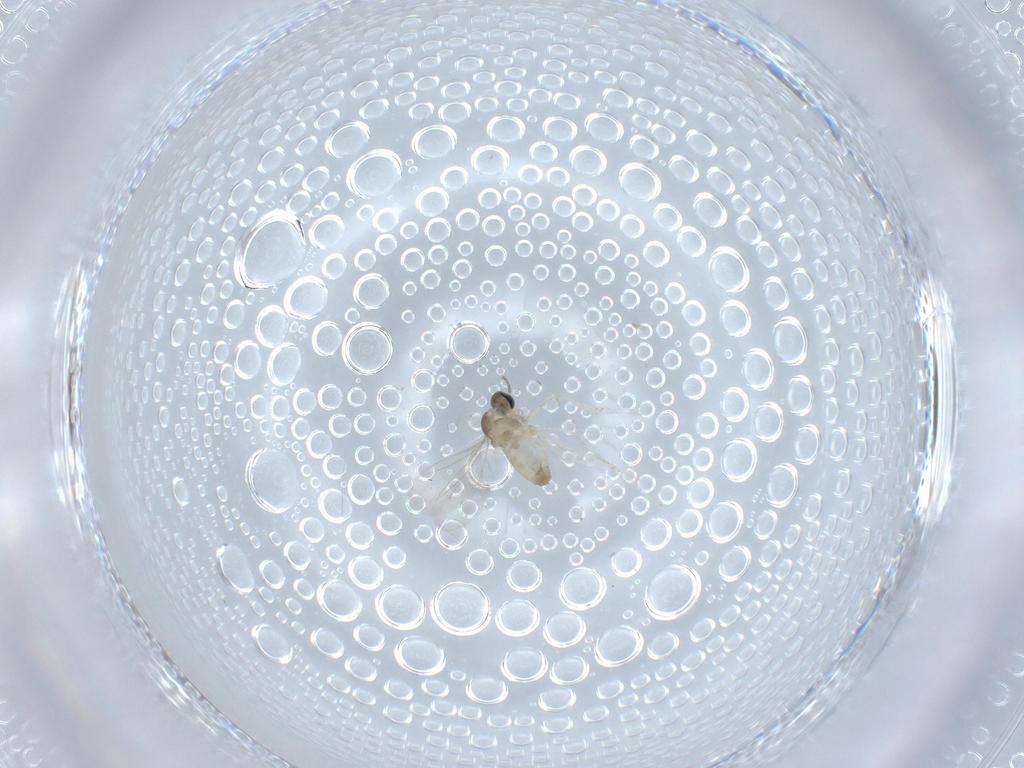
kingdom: Animalia
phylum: Arthropoda
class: Insecta
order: Diptera
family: Cecidomyiidae
